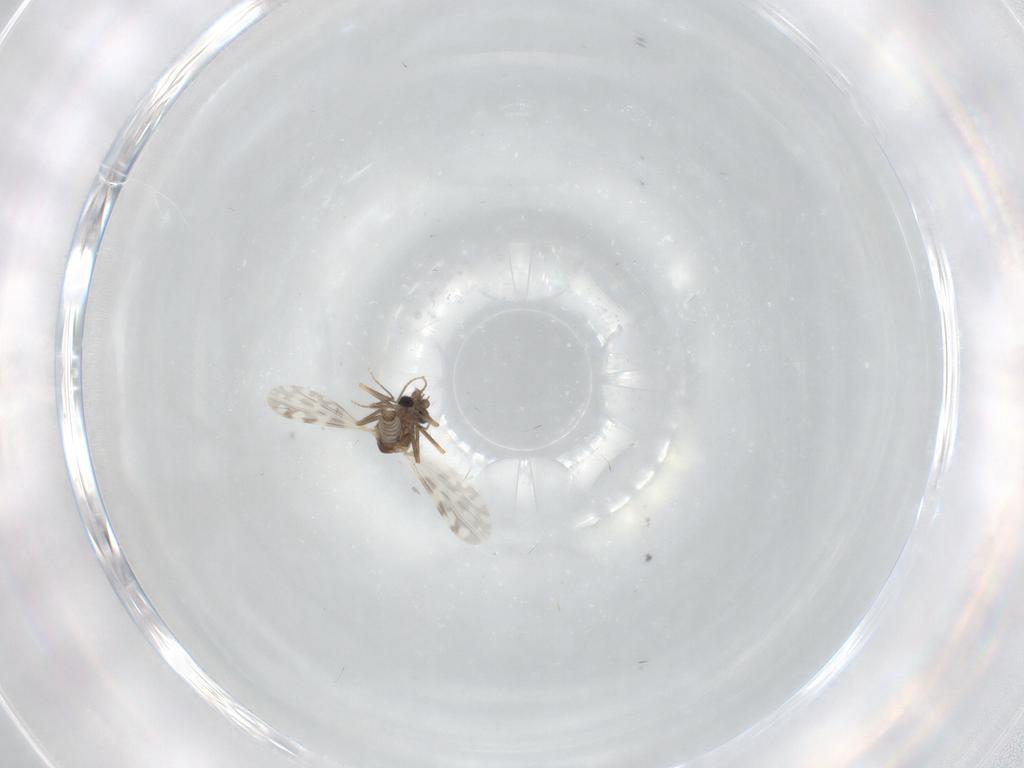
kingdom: Animalia
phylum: Arthropoda
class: Insecta
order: Diptera
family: Ceratopogonidae
